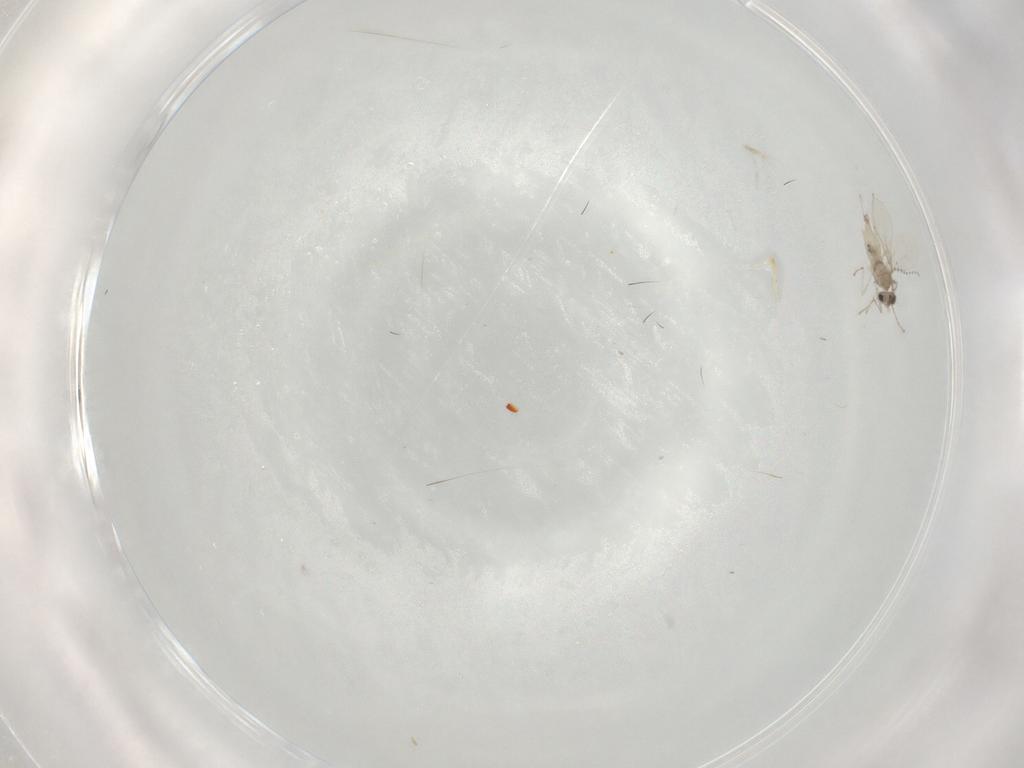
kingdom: Animalia
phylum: Arthropoda
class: Insecta
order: Diptera
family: Cecidomyiidae
